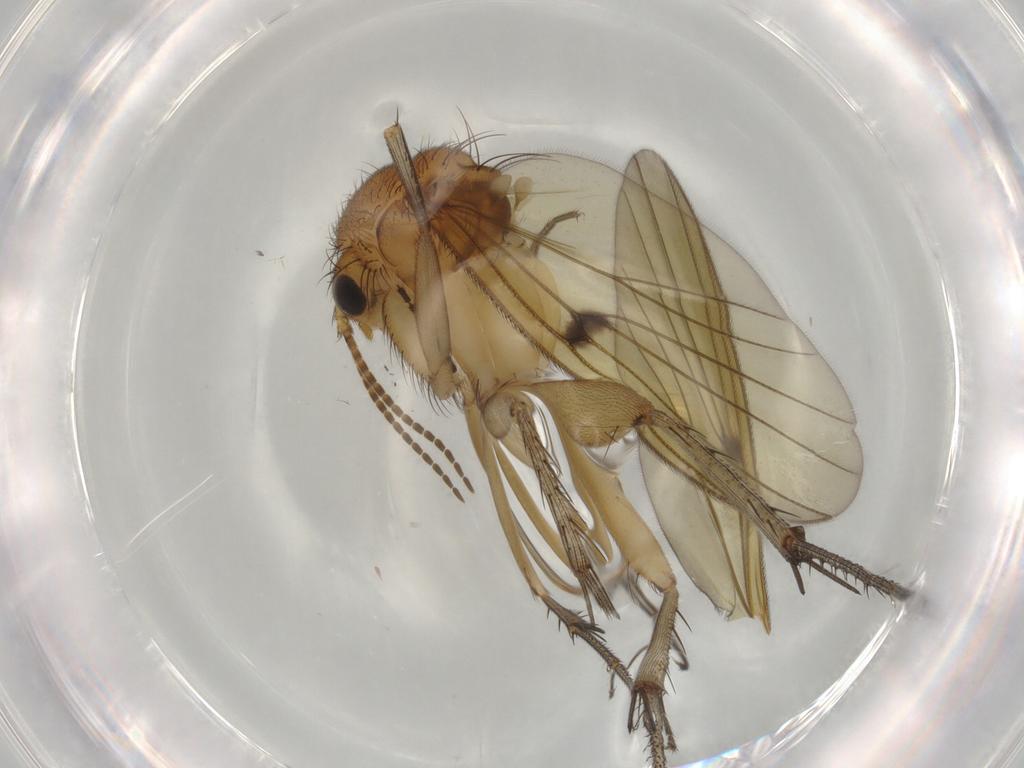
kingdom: Animalia
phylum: Arthropoda
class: Insecta
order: Diptera
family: Mycetophilidae
